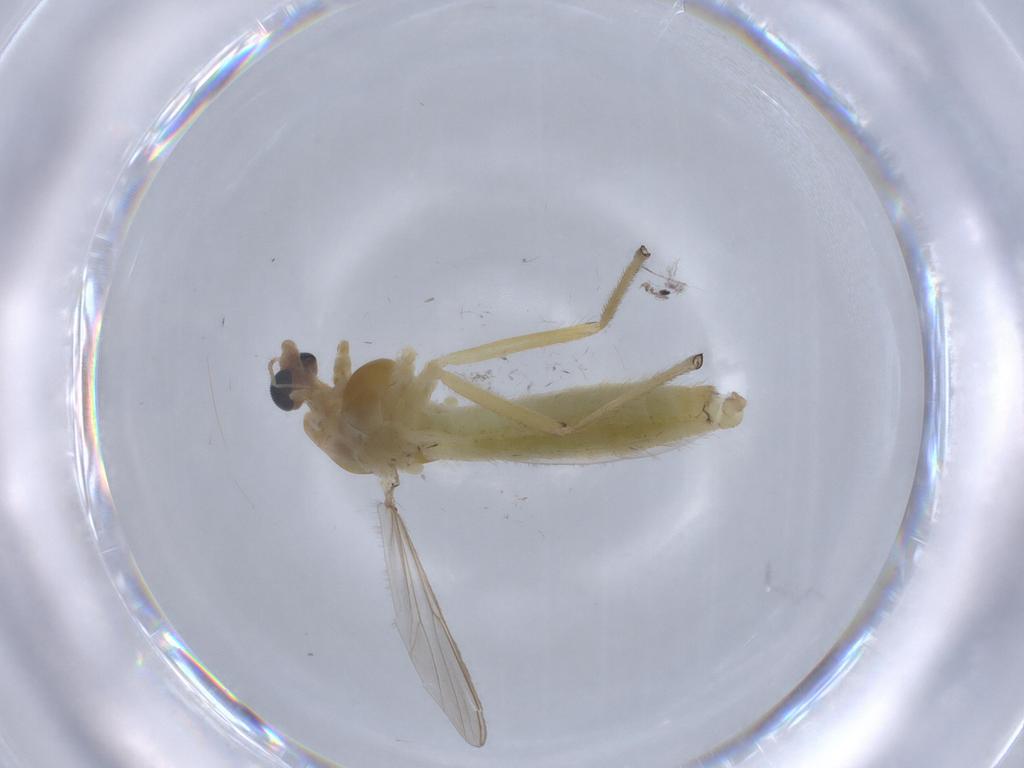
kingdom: Animalia
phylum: Arthropoda
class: Insecta
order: Diptera
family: Chironomidae
